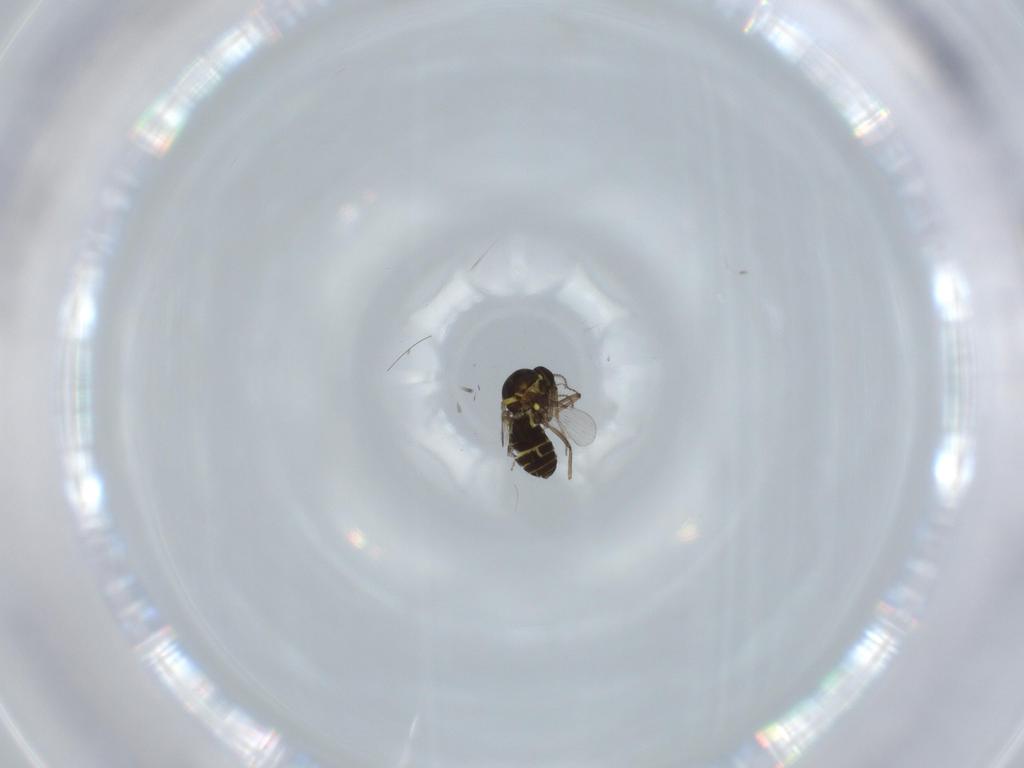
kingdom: Animalia
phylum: Arthropoda
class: Insecta
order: Diptera
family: Ceratopogonidae
